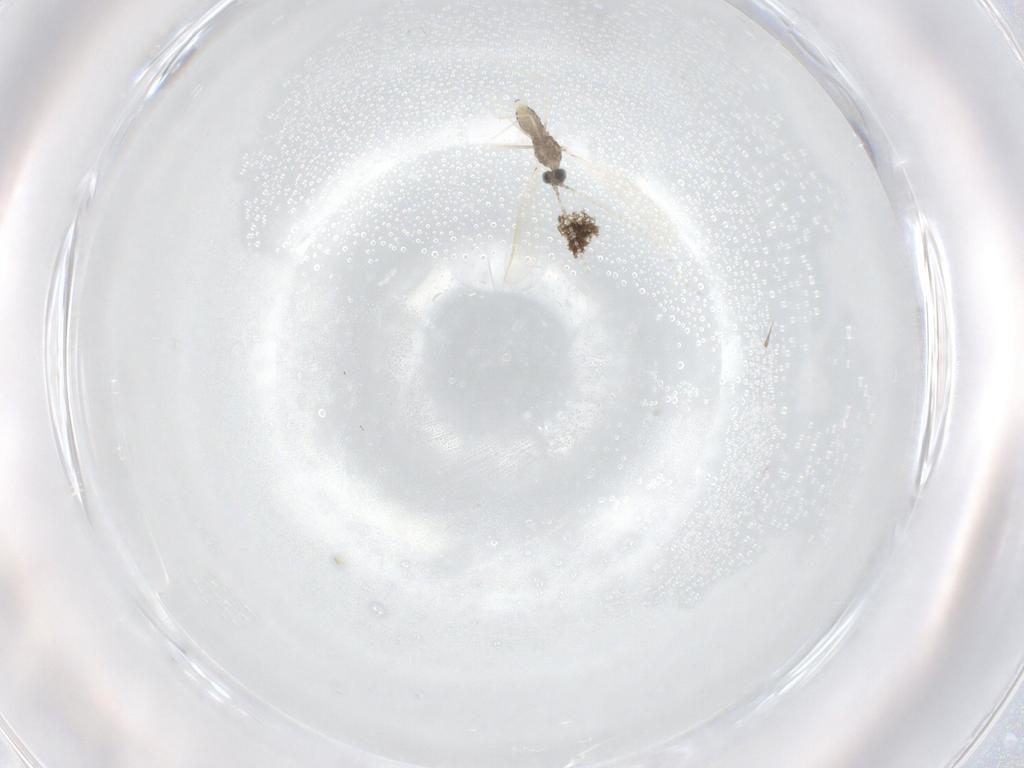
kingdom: Animalia
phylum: Arthropoda
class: Insecta
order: Diptera
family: Cecidomyiidae
